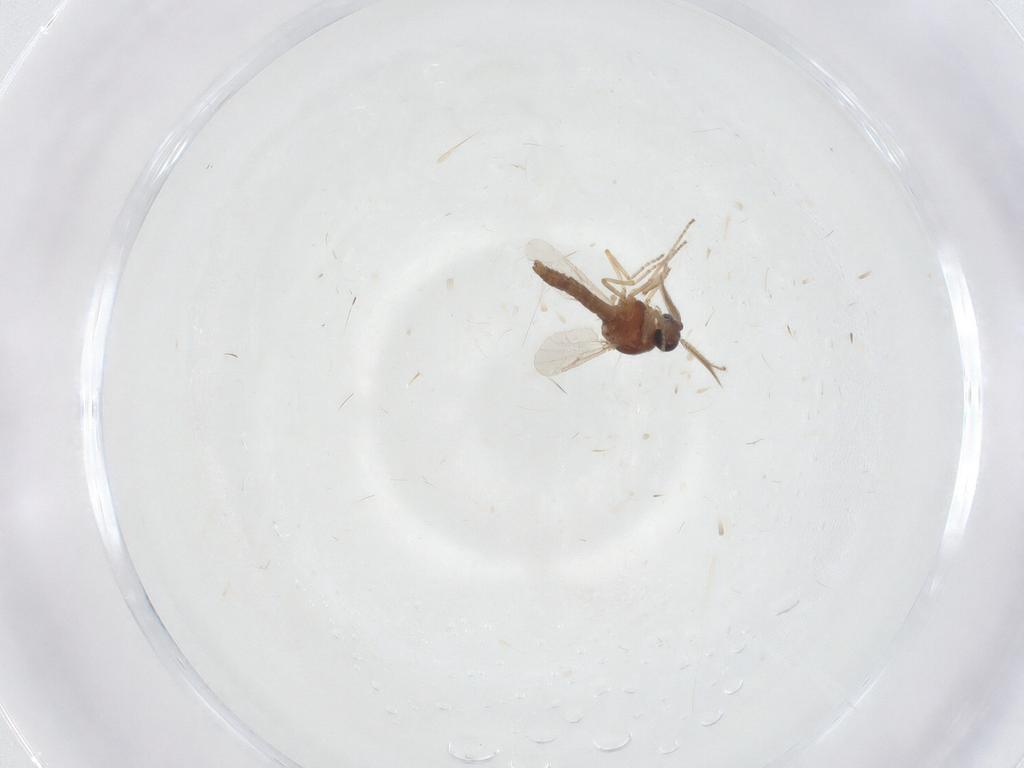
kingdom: Animalia
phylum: Arthropoda
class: Insecta
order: Diptera
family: Ceratopogonidae
